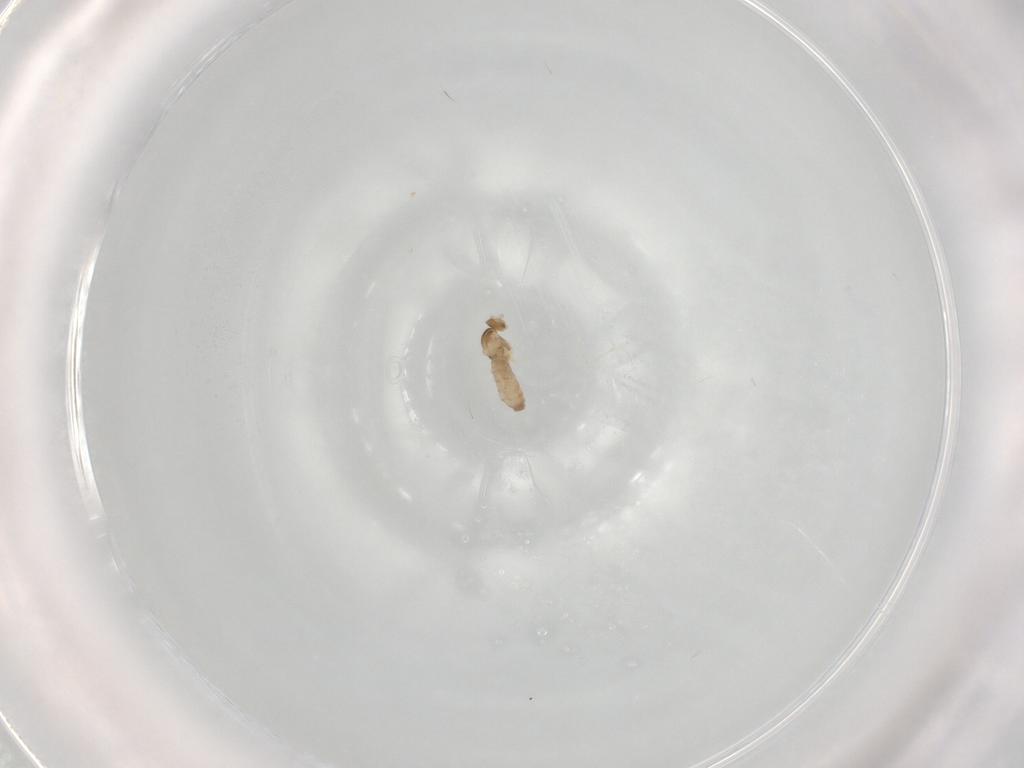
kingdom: Animalia
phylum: Arthropoda
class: Insecta
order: Diptera
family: Cecidomyiidae
